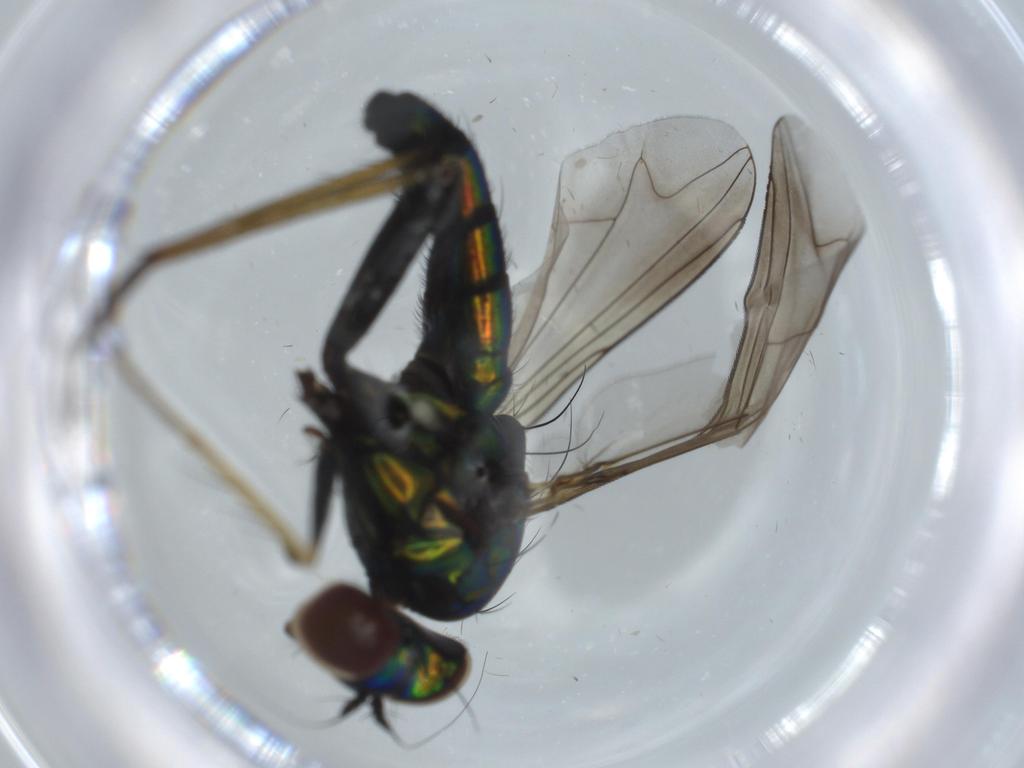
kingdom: Animalia
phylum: Arthropoda
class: Insecta
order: Diptera
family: Dolichopodidae
